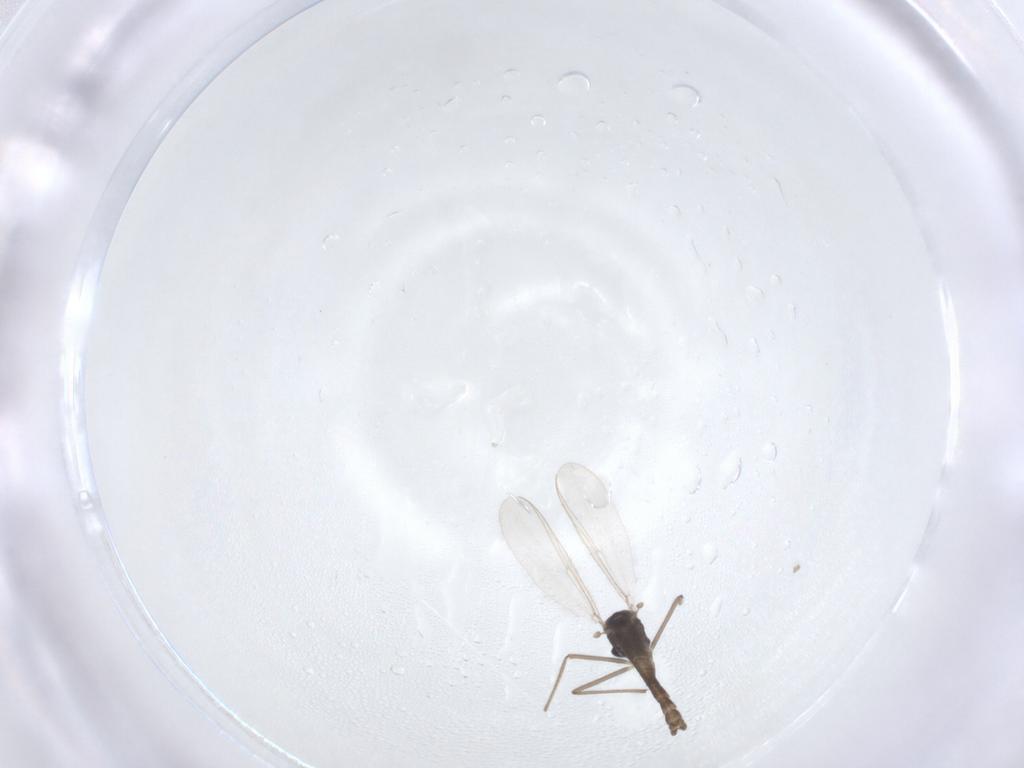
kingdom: Animalia
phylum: Arthropoda
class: Insecta
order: Diptera
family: Chironomidae
